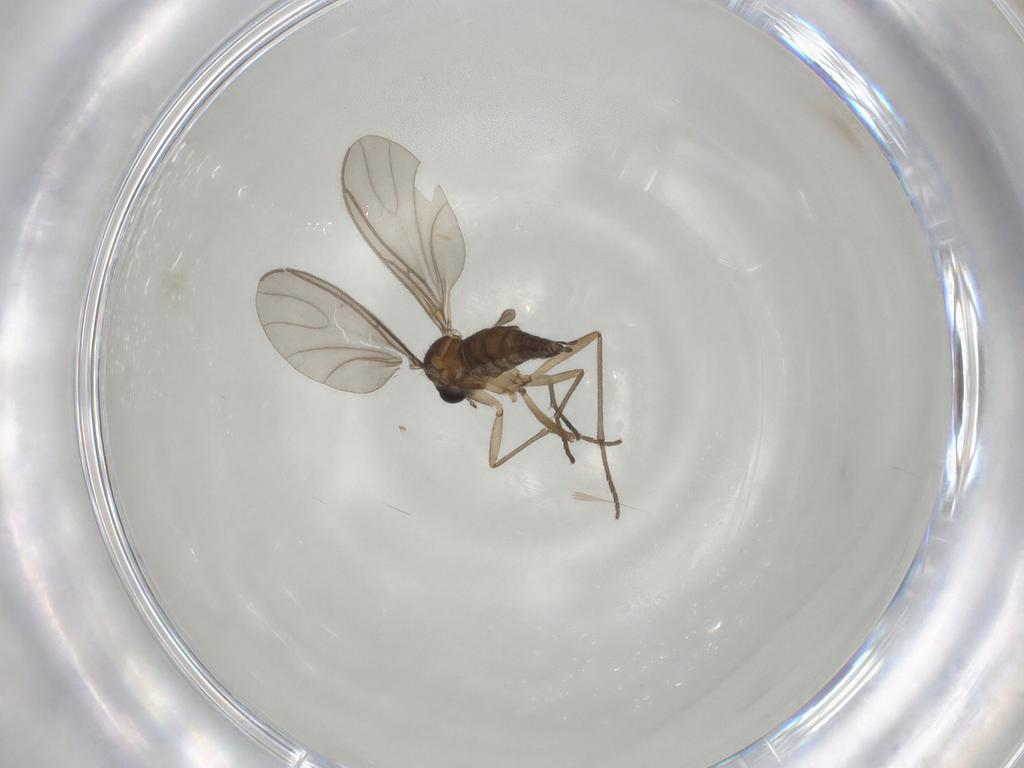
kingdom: Animalia
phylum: Arthropoda
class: Insecta
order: Diptera
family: Sciaridae
